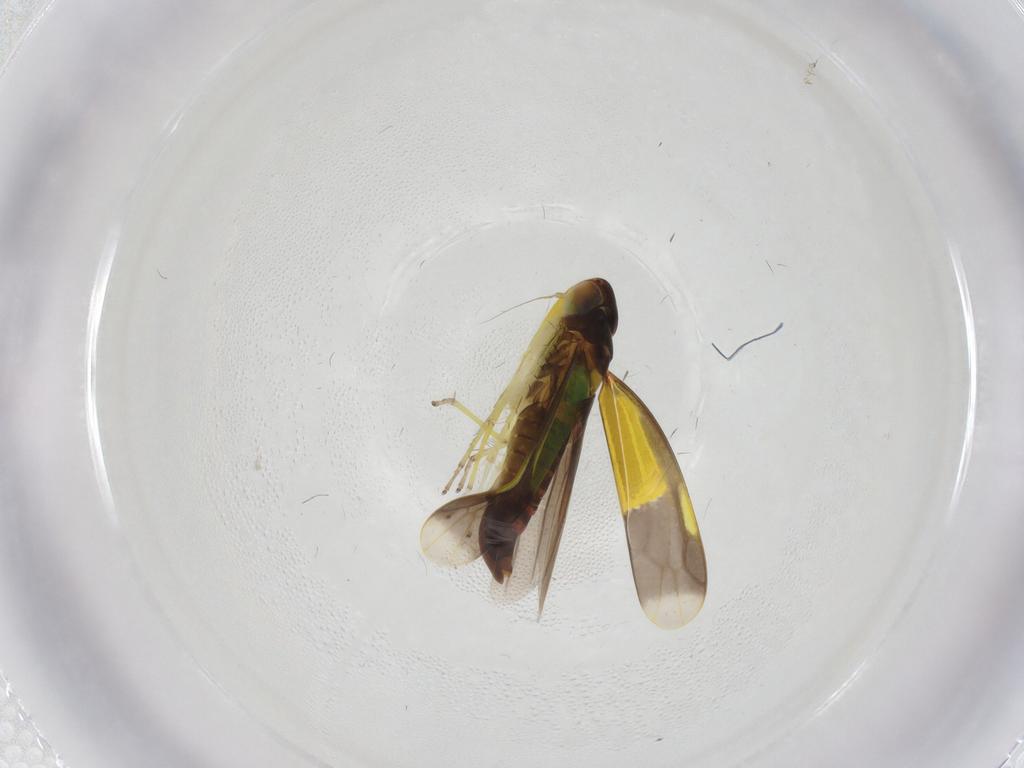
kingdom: Animalia
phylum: Arthropoda
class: Insecta
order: Hemiptera
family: Cicadellidae
